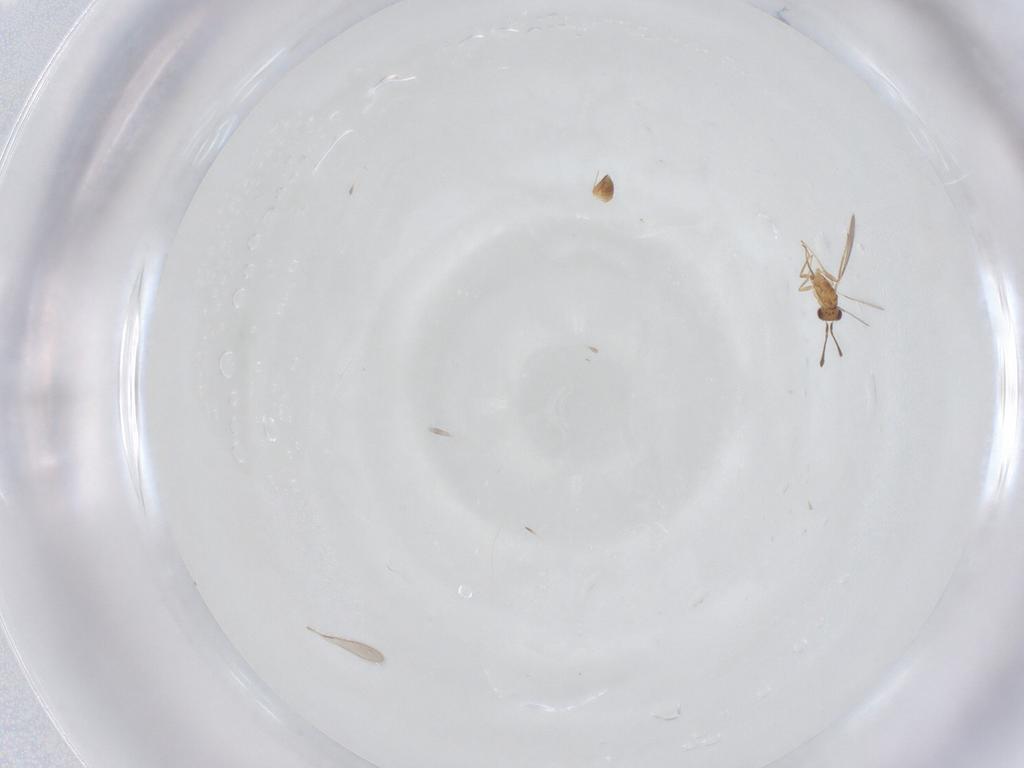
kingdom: Animalia
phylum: Arthropoda
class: Insecta
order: Hymenoptera
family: Mymaridae
